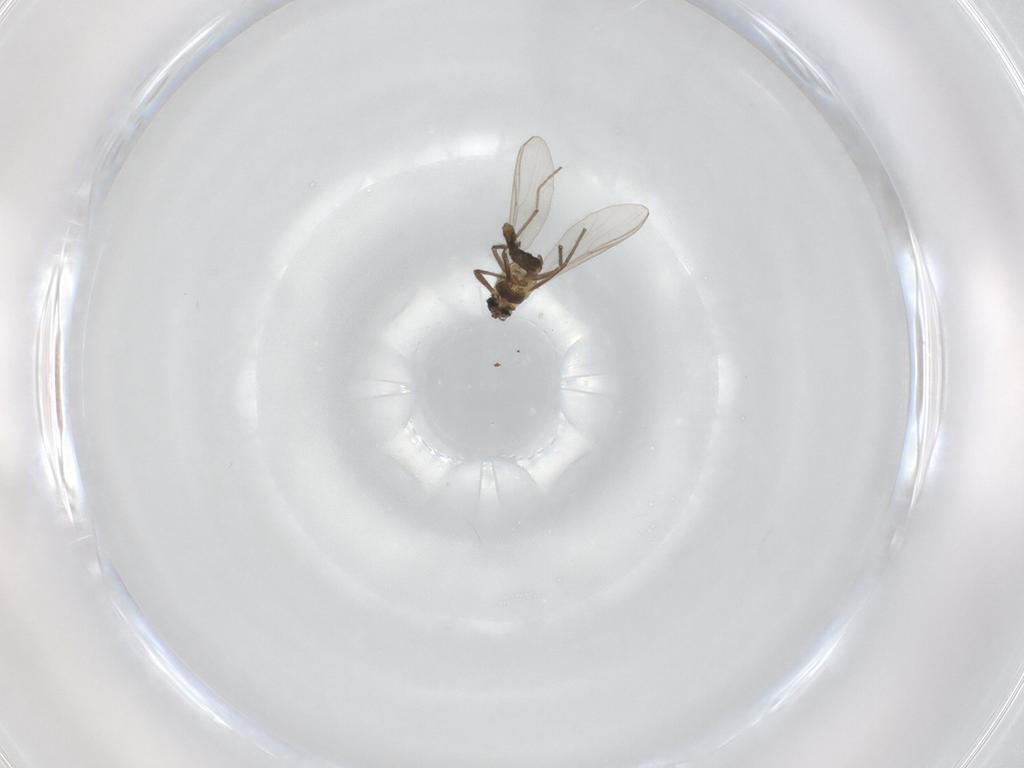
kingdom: Animalia
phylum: Arthropoda
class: Insecta
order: Diptera
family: Chironomidae
